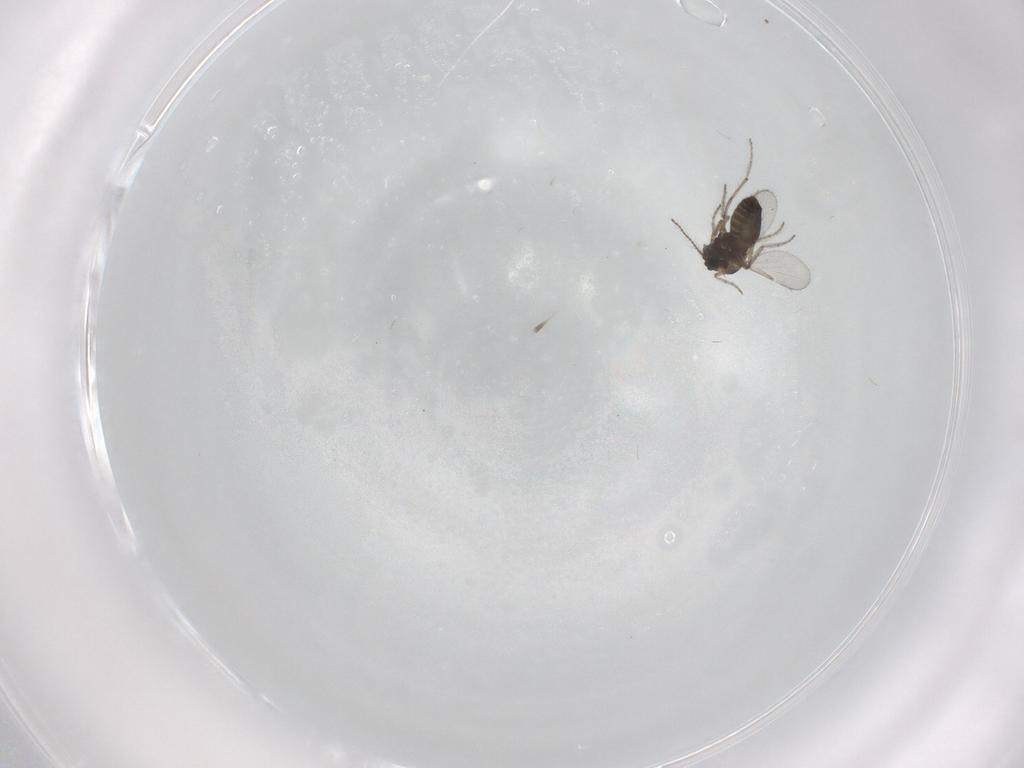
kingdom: Animalia
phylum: Arthropoda
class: Insecta
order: Diptera
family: Ceratopogonidae
